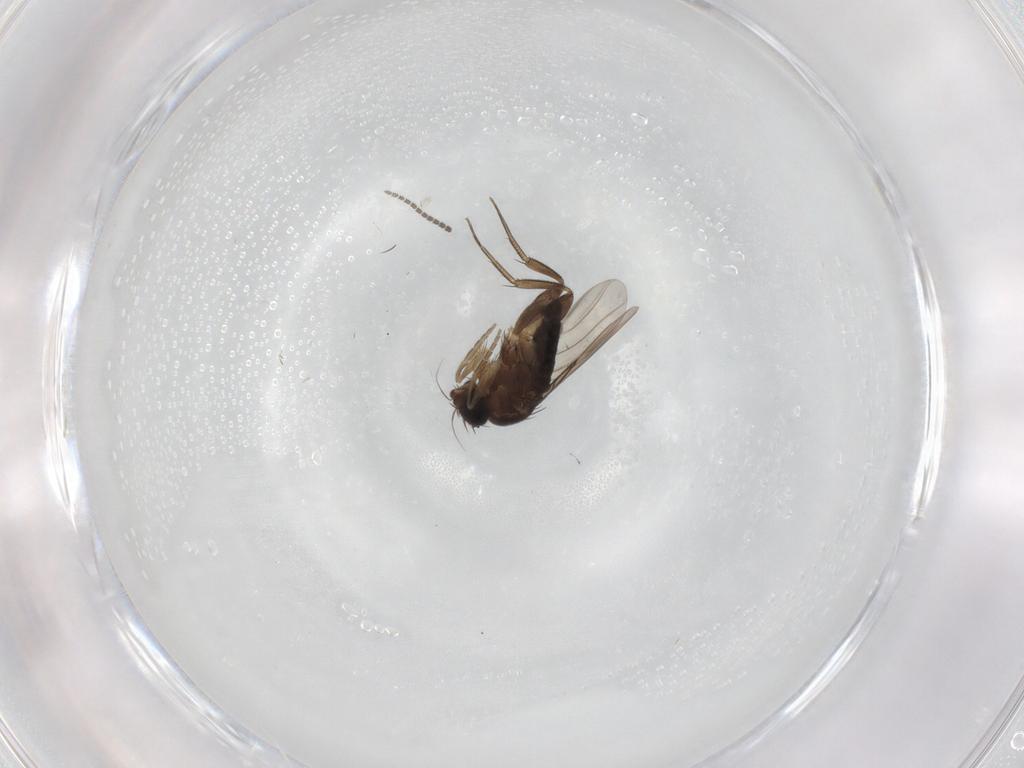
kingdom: Animalia
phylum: Arthropoda
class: Insecta
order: Diptera
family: Phoridae
